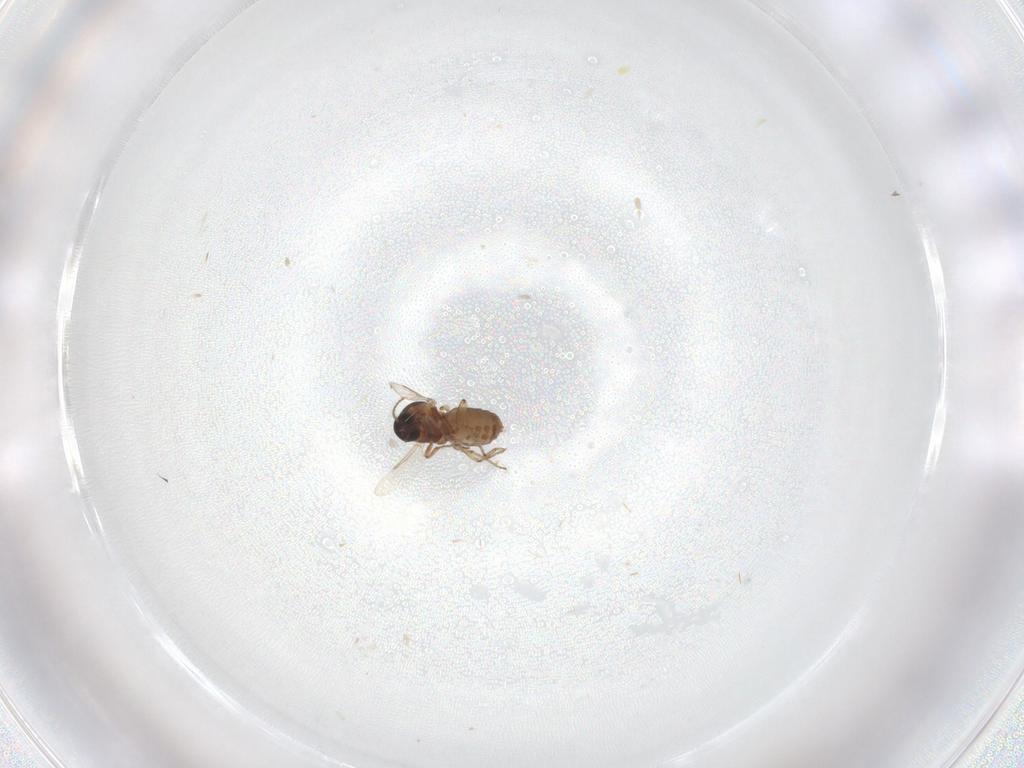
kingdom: Animalia
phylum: Arthropoda
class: Insecta
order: Diptera
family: Ceratopogonidae
